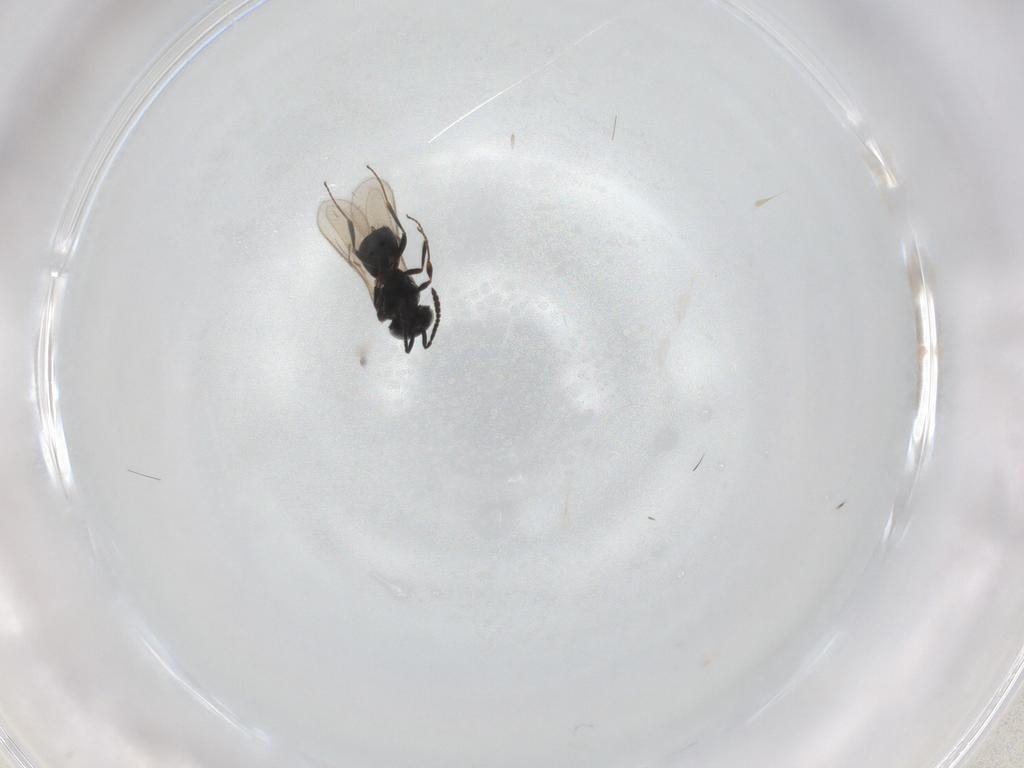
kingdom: Animalia
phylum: Arthropoda
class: Insecta
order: Hymenoptera
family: Scelionidae
